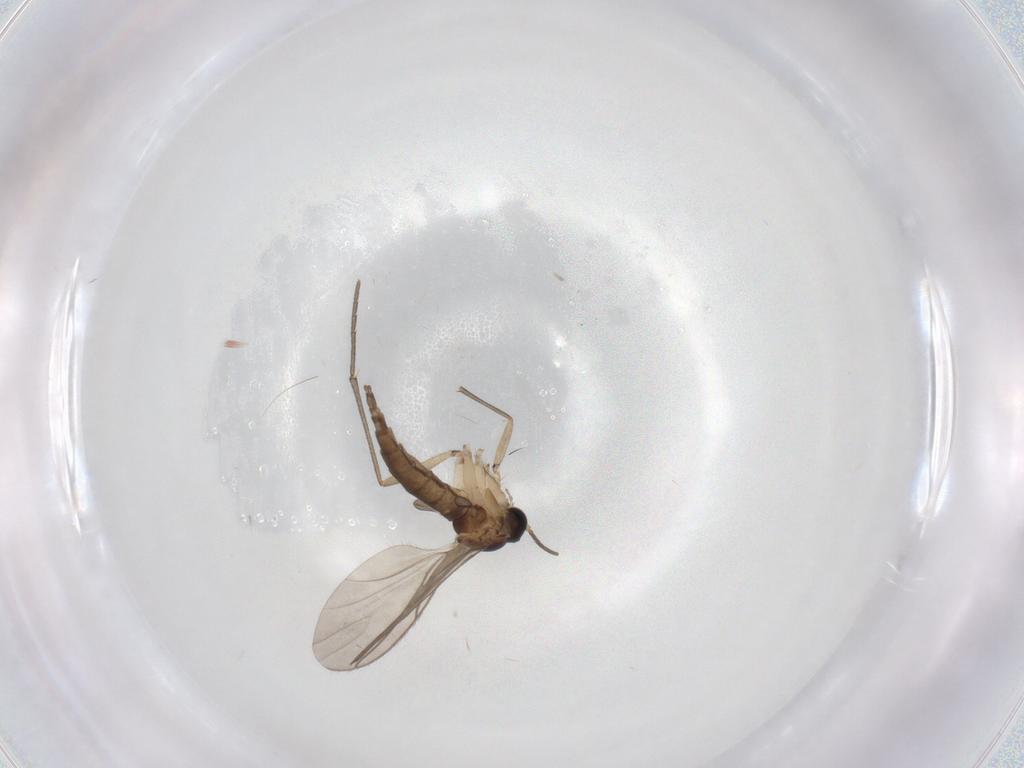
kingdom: Animalia
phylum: Arthropoda
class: Insecta
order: Diptera
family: Sciaridae
